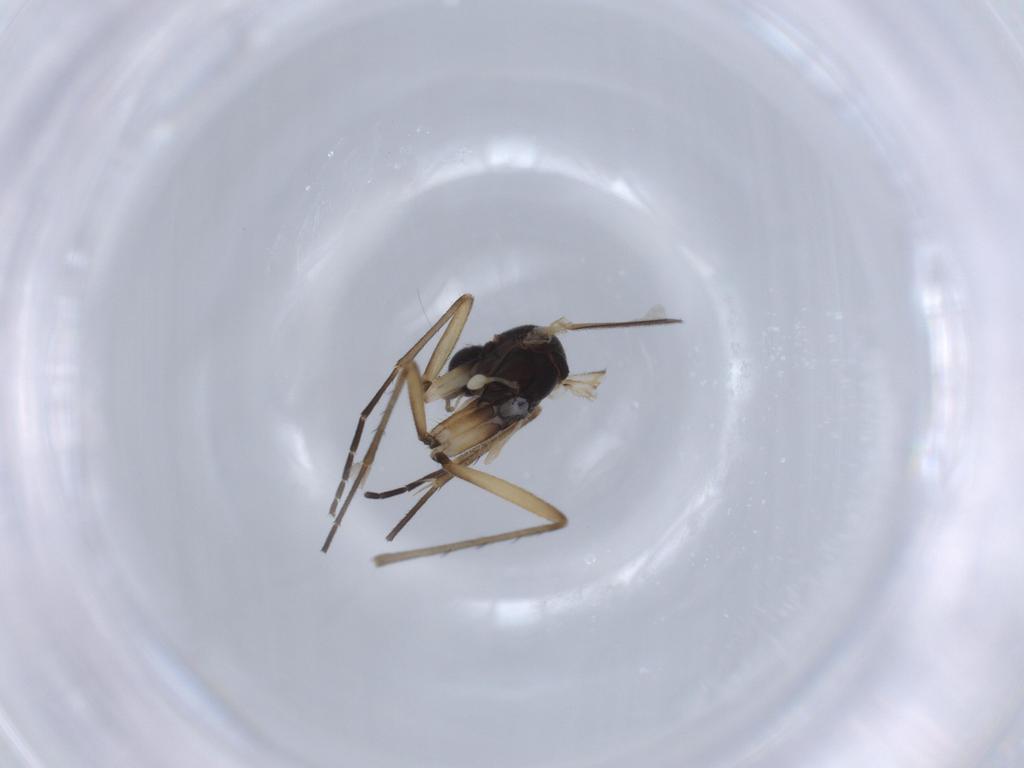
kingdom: Animalia
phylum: Arthropoda
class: Insecta
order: Diptera
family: Mycetophilidae
